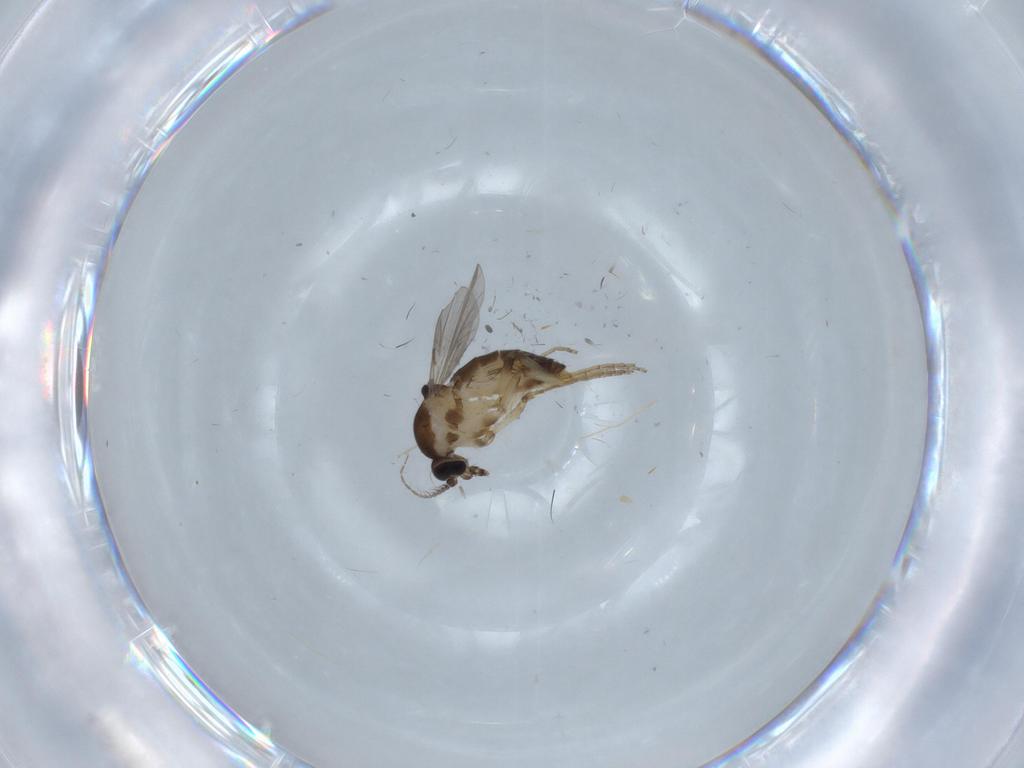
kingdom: Animalia
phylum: Arthropoda
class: Insecta
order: Diptera
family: Ceratopogonidae
